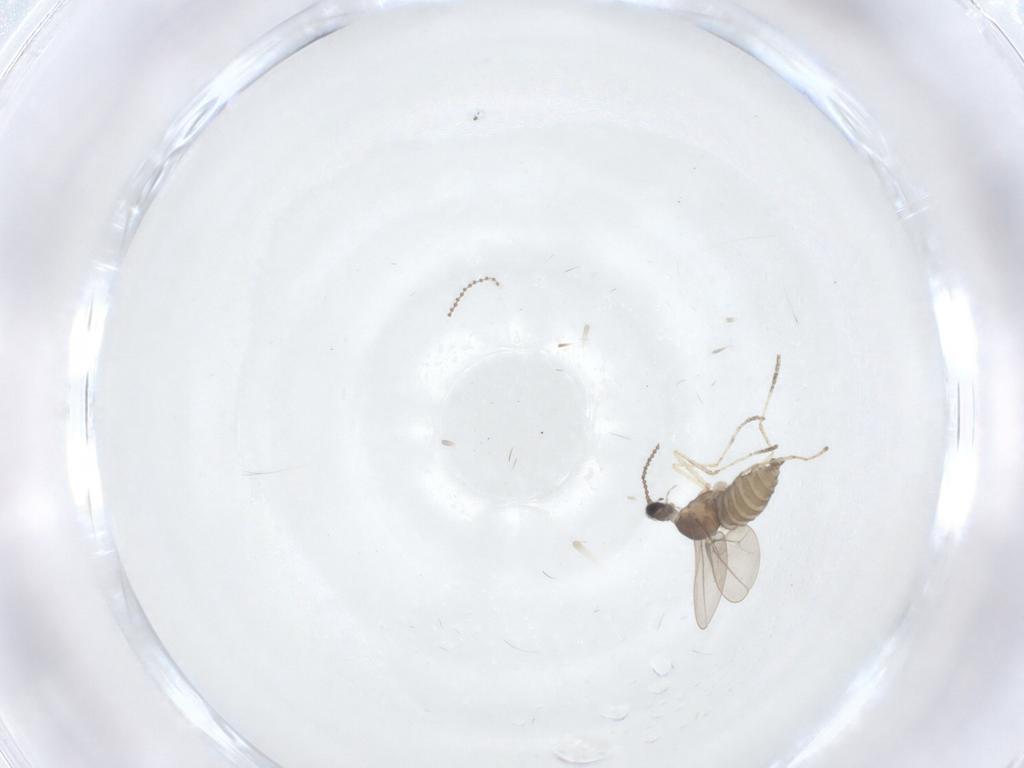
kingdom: Animalia
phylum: Arthropoda
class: Insecta
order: Diptera
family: Cecidomyiidae
